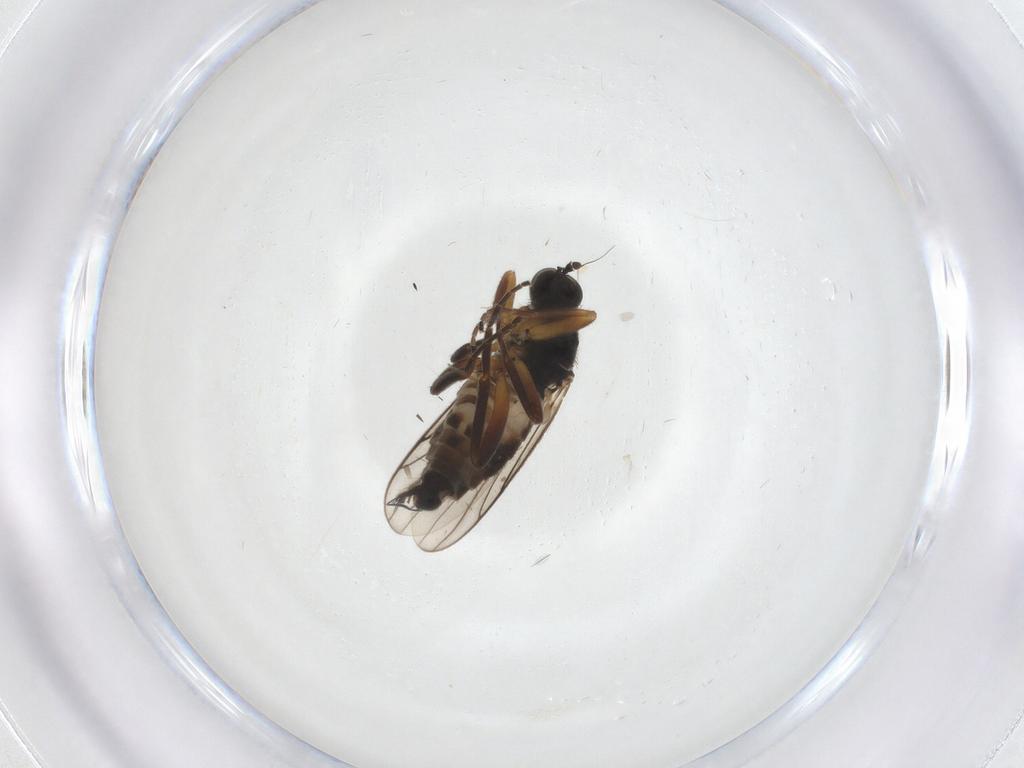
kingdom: Animalia
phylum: Arthropoda
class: Insecta
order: Diptera
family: Hybotidae
